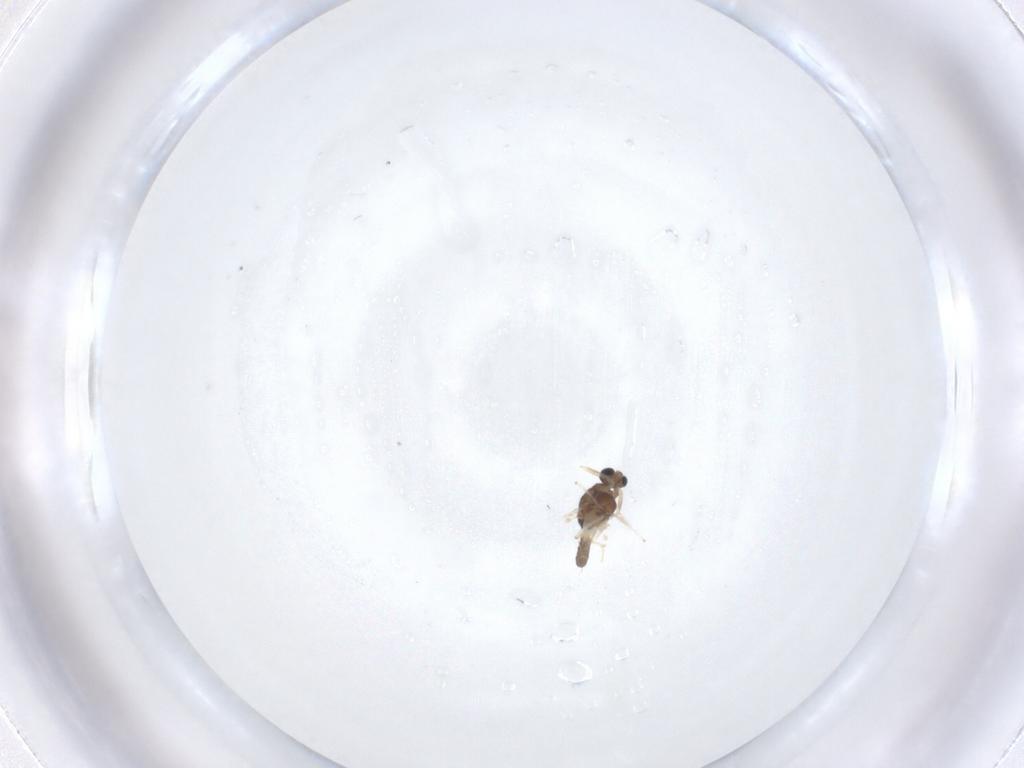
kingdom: Animalia
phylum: Arthropoda
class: Insecta
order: Diptera
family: Chironomidae
